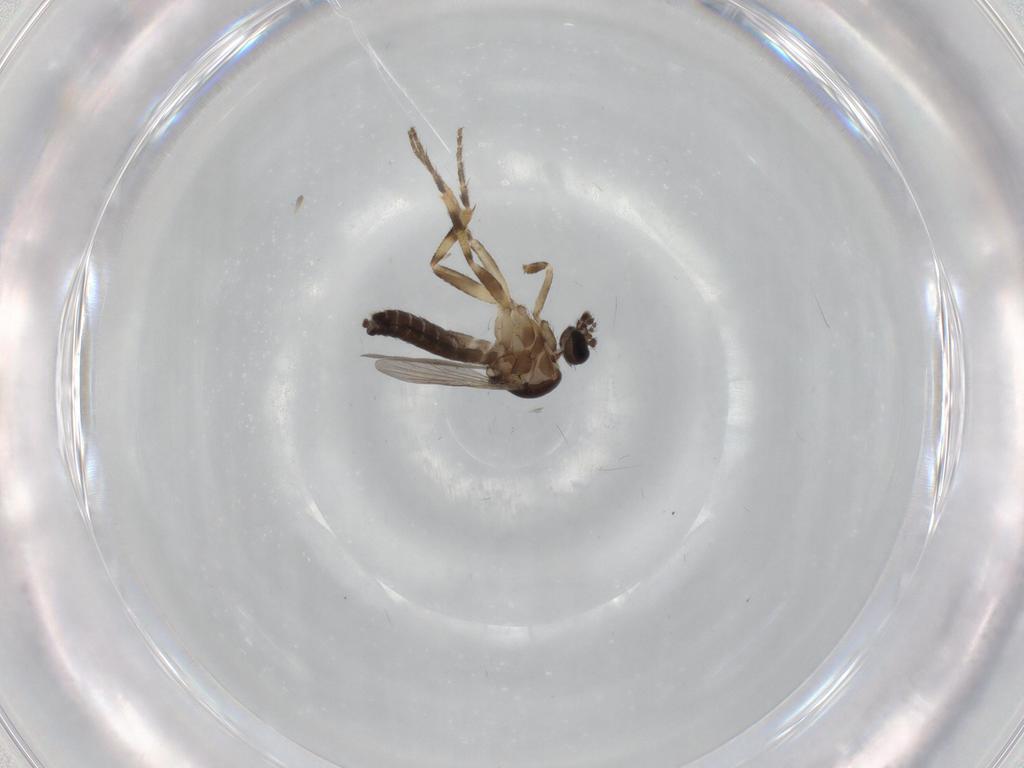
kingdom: Animalia
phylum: Arthropoda
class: Insecta
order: Diptera
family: Ceratopogonidae
